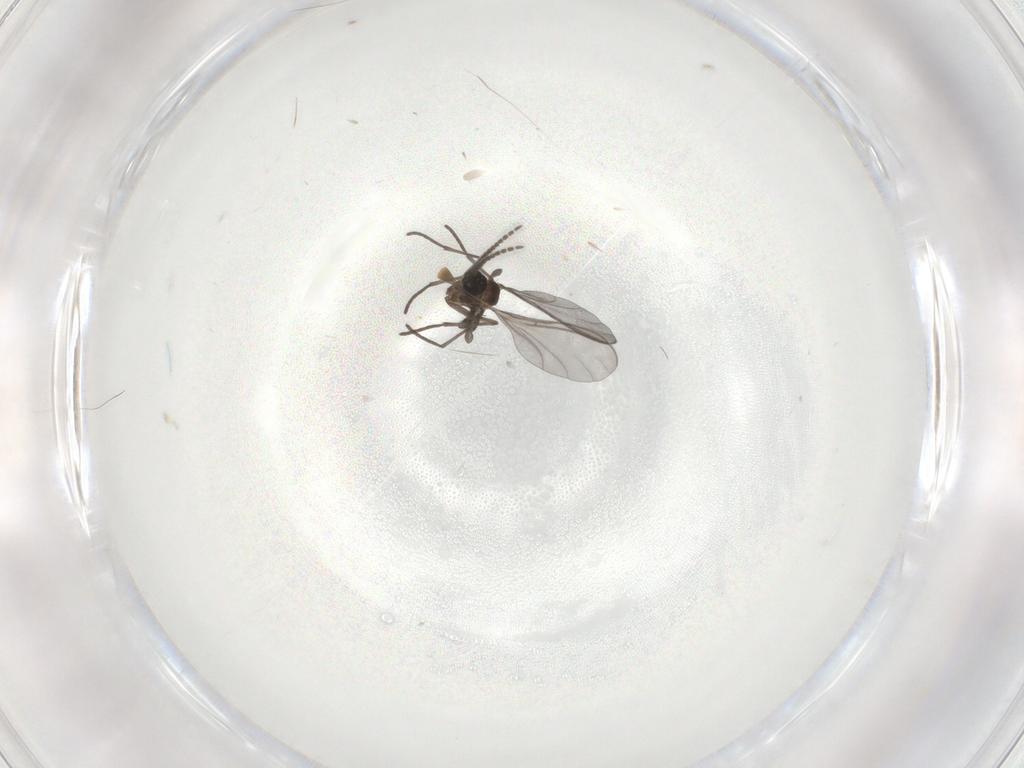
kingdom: Animalia
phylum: Arthropoda
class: Insecta
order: Diptera
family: Sciaridae
